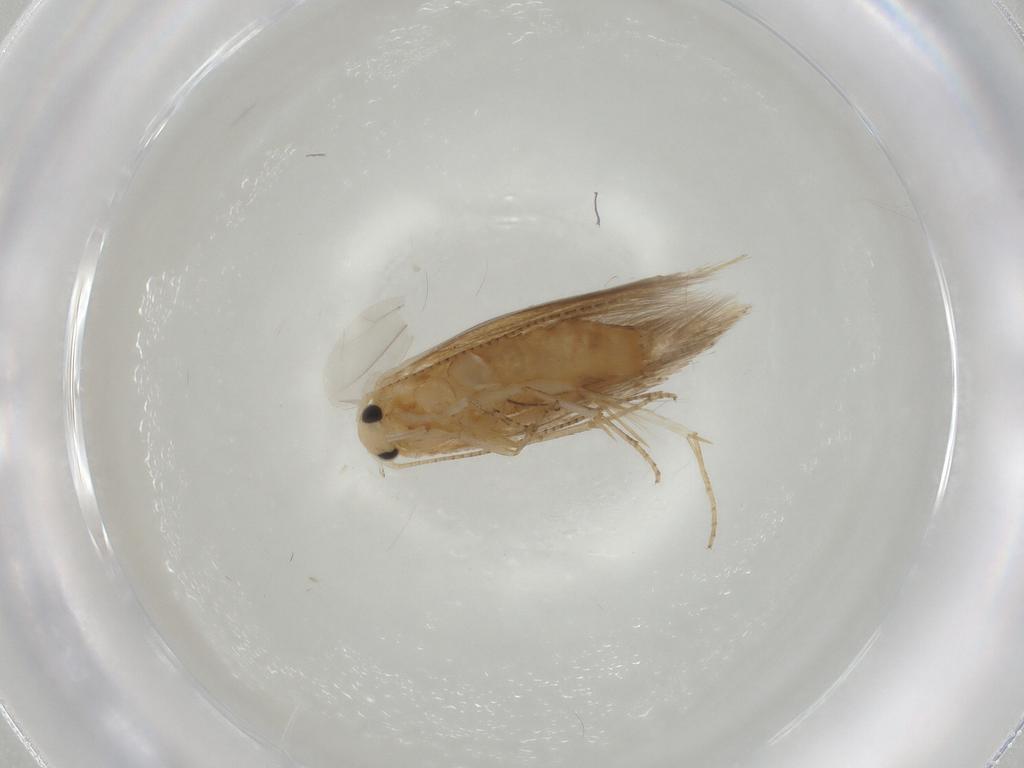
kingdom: Animalia
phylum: Arthropoda
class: Insecta
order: Lepidoptera
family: Bucculatricidae
